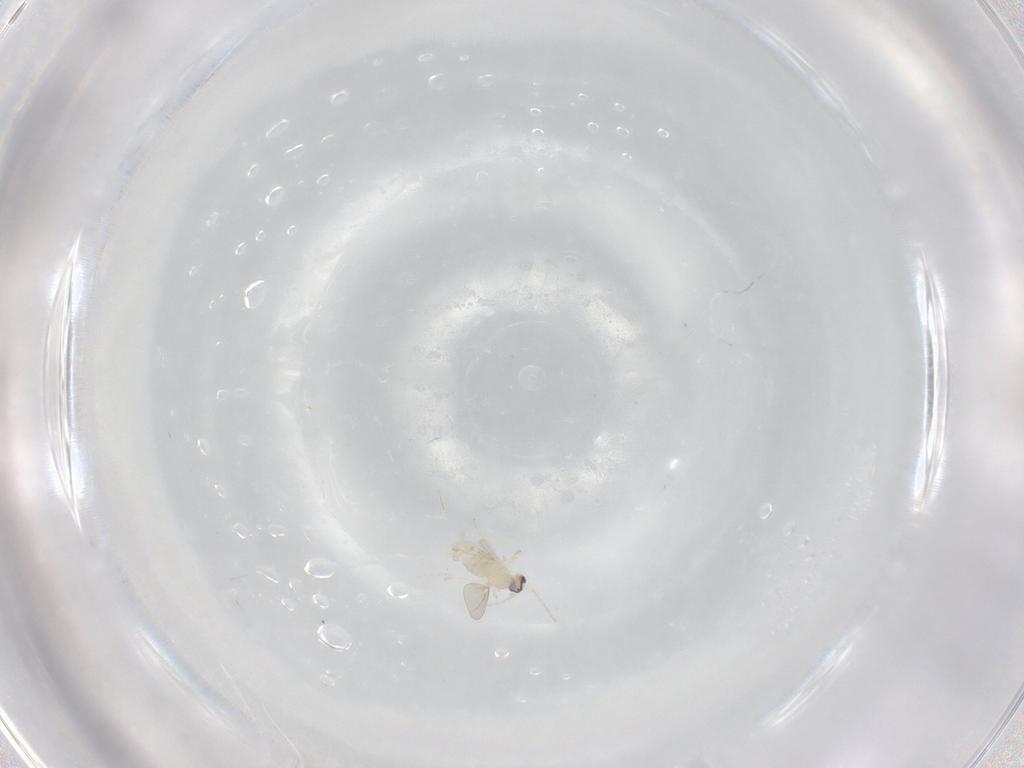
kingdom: Animalia
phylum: Arthropoda
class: Insecta
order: Diptera
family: Cecidomyiidae
